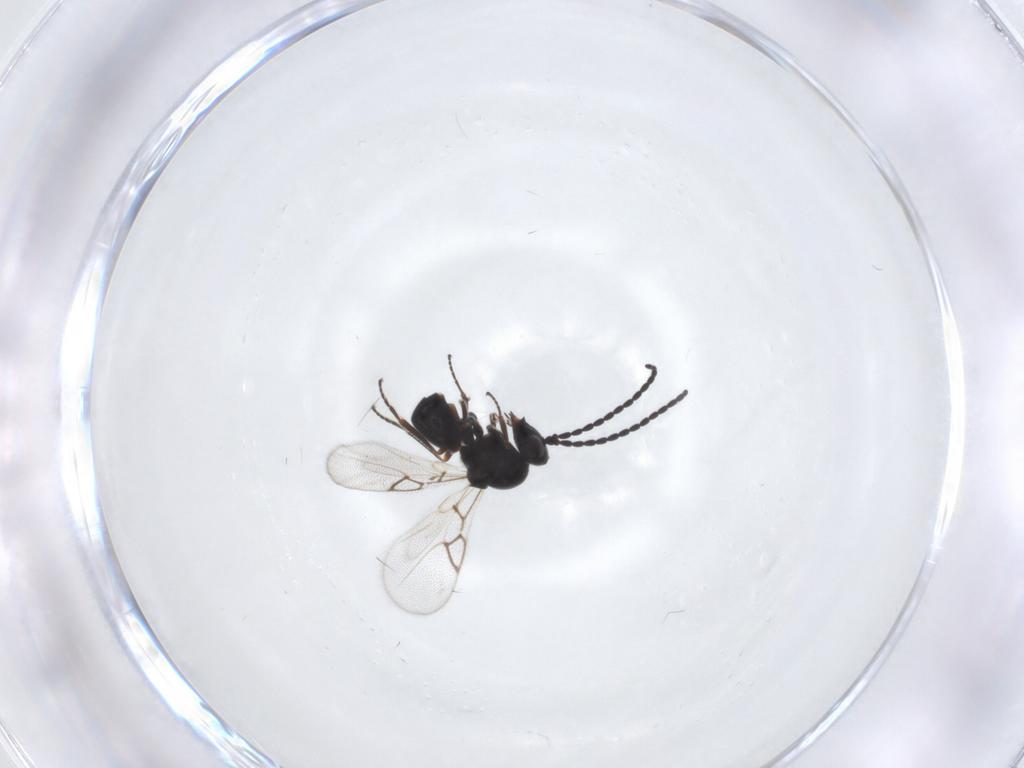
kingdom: Animalia
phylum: Arthropoda
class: Insecta
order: Hymenoptera
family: Figitidae
